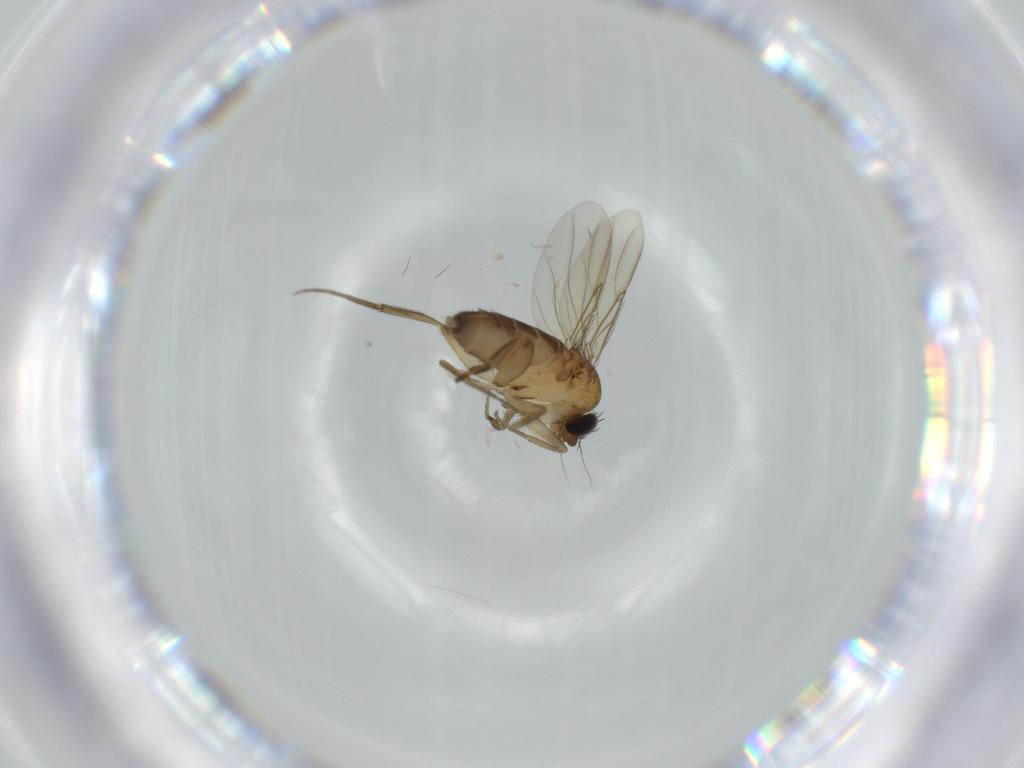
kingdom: Animalia
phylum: Arthropoda
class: Insecta
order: Diptera
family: Phoridae
